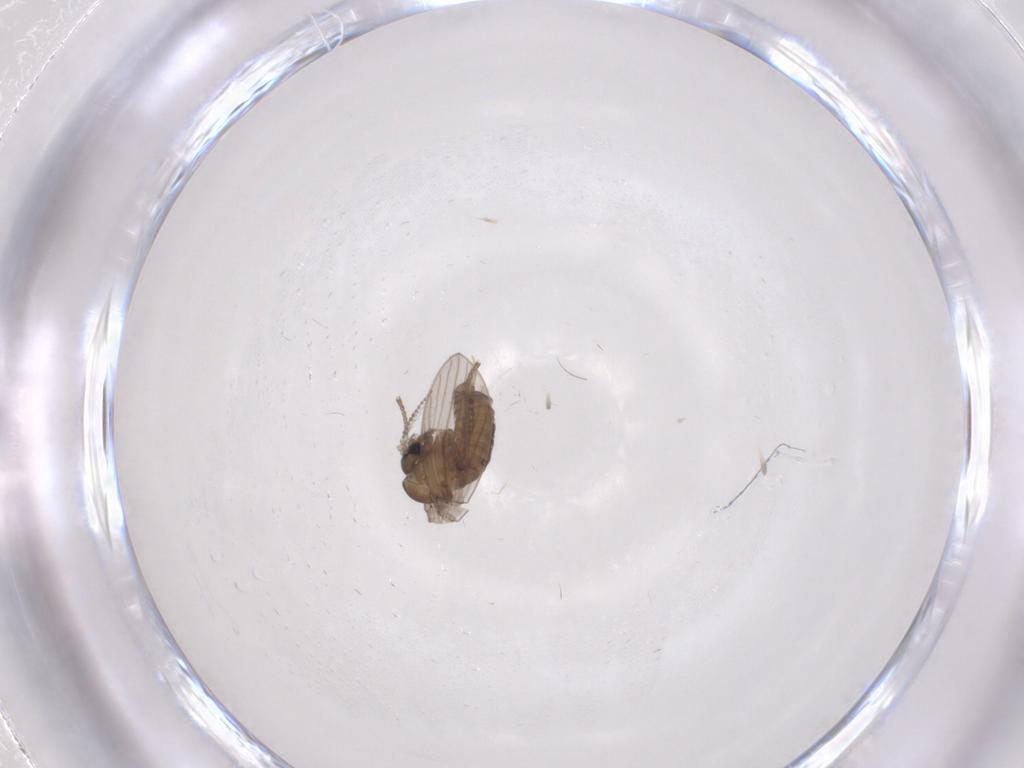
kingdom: Animalia
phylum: Arthropoda
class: Insecta
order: Diptera
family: Psychodidae
